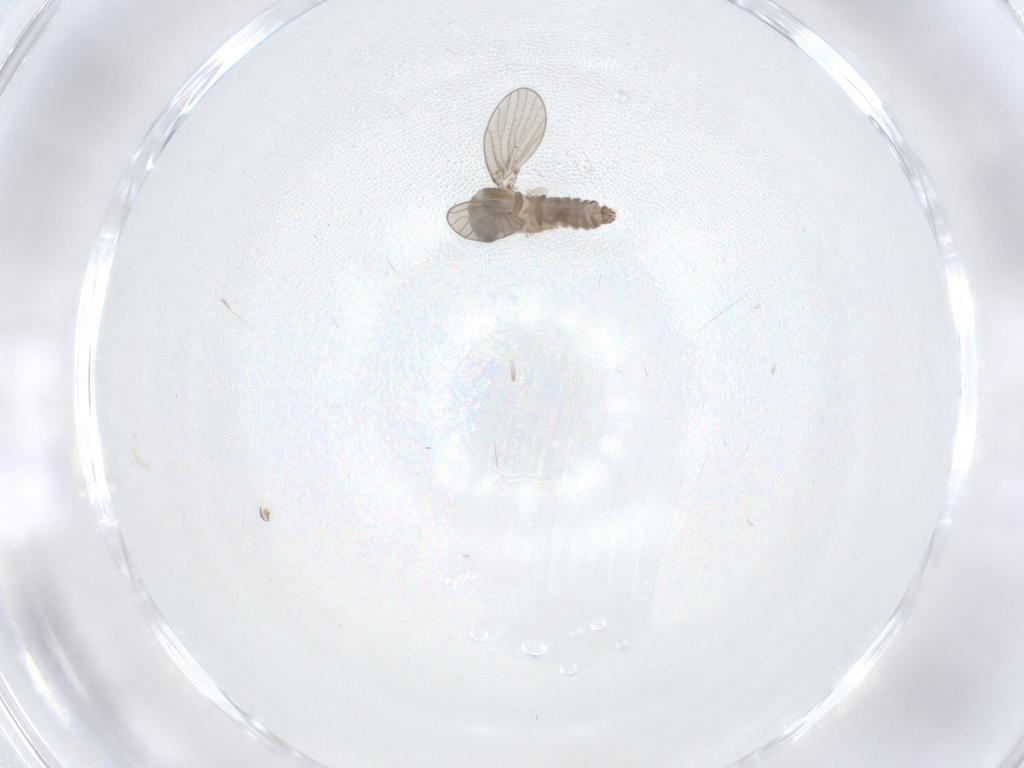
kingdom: Animalia
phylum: Arthropoda
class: Insecta
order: Diptera
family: Psychodidae
